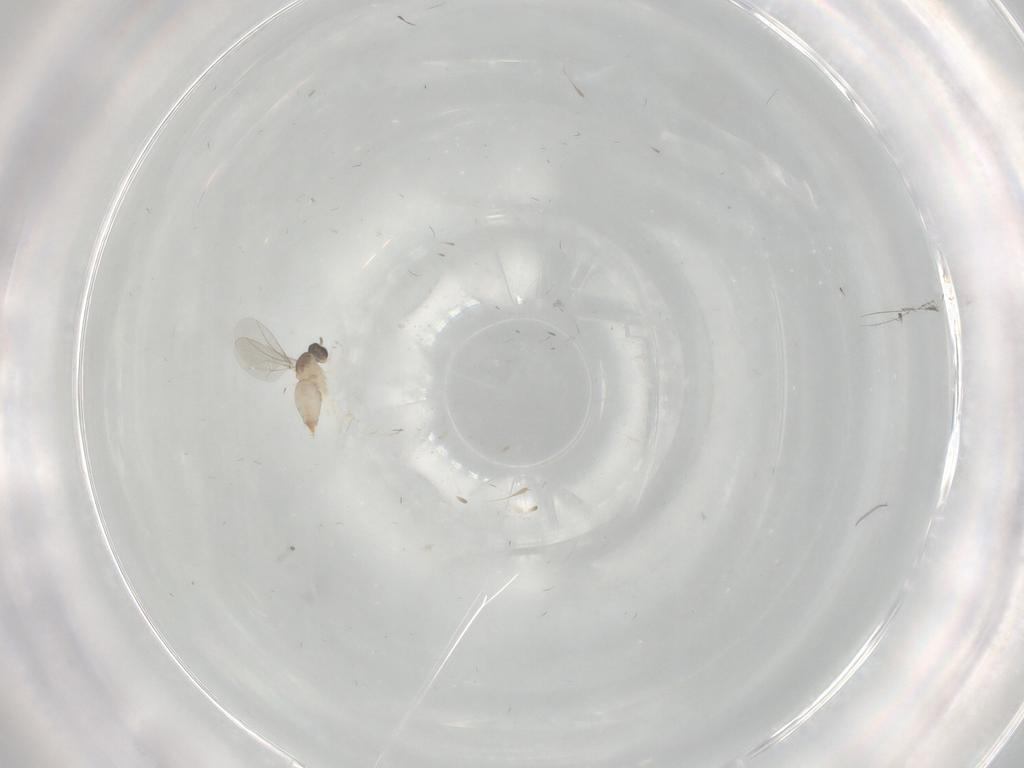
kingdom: Animalia
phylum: Arthropoda
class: Insecta
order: Diptera
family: Cecidomyiidae
